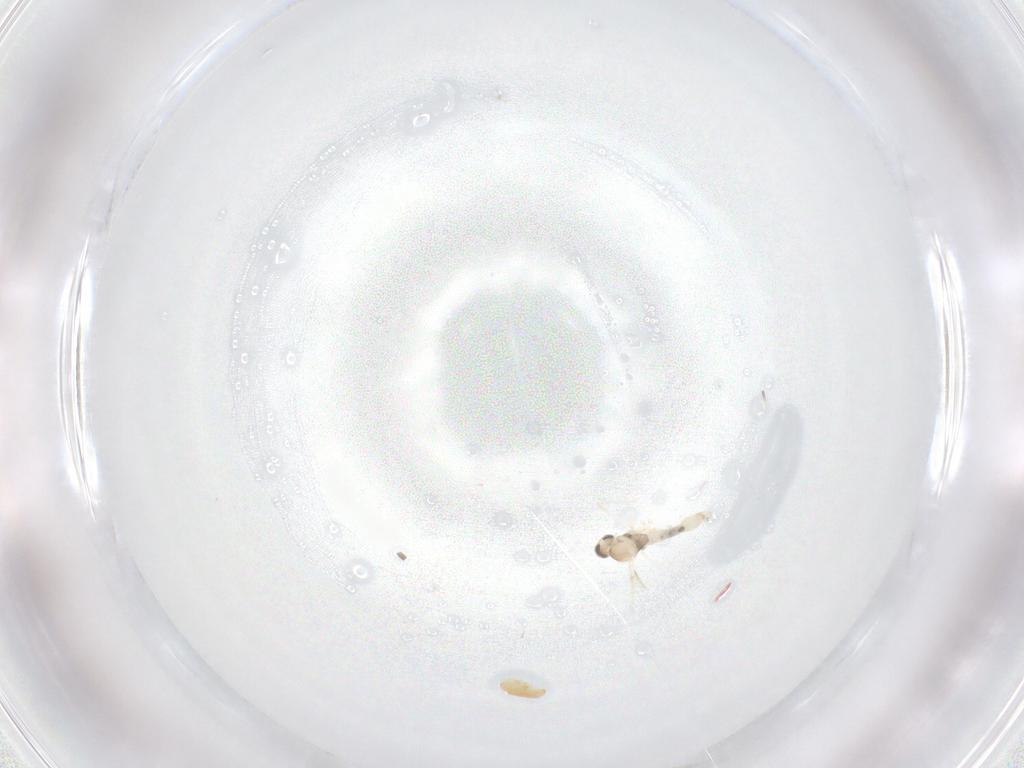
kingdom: Animalia
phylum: Arthropoda
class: Insecta
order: Diptera
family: Cecidomyiidae
